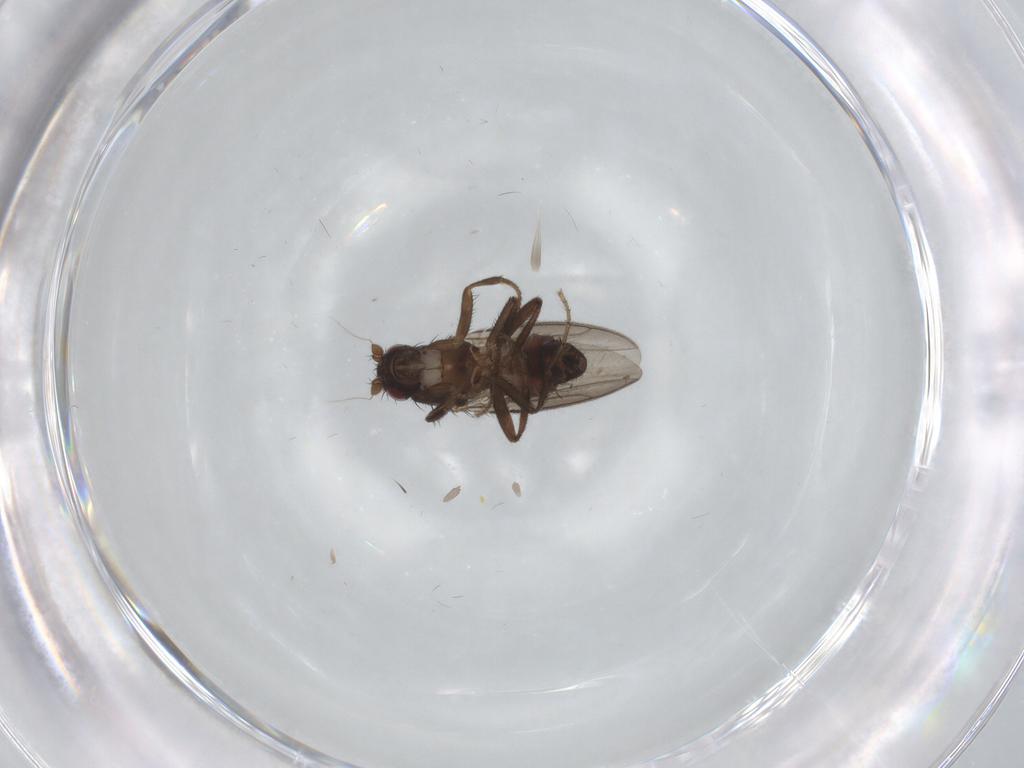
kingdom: Animalia
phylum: Arthropoda
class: Insecta
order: Diptera
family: Sphaeroceridae
